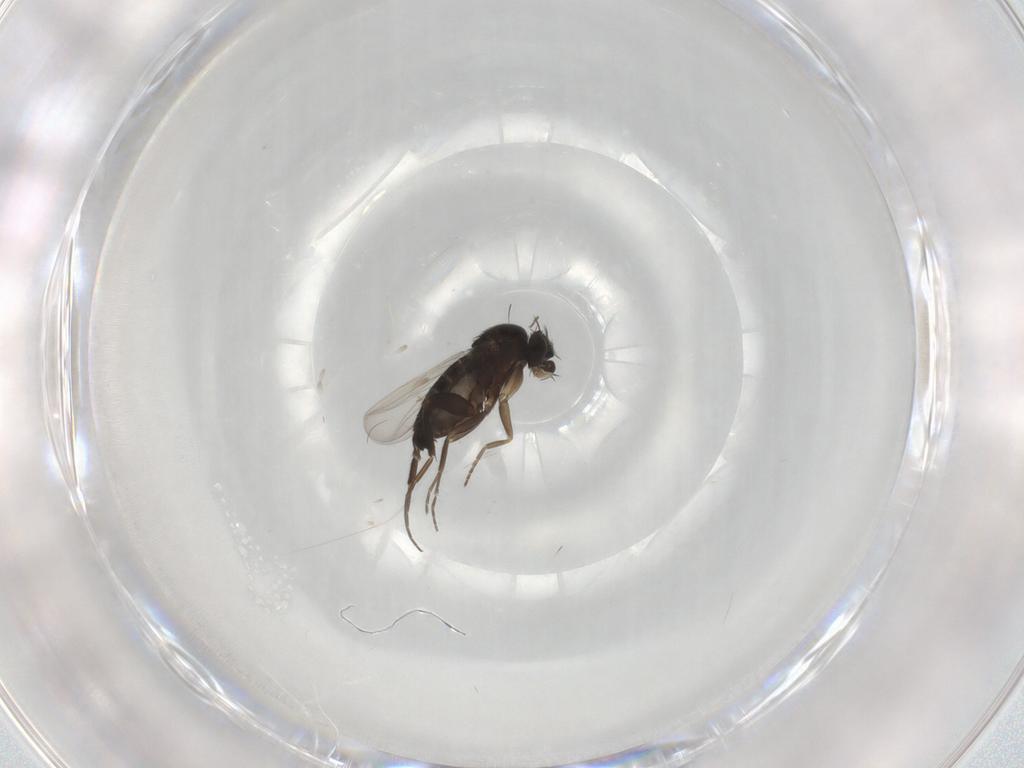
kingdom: Animalia
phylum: Arthropoda
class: Insecta
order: Diptera
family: Phoridae
